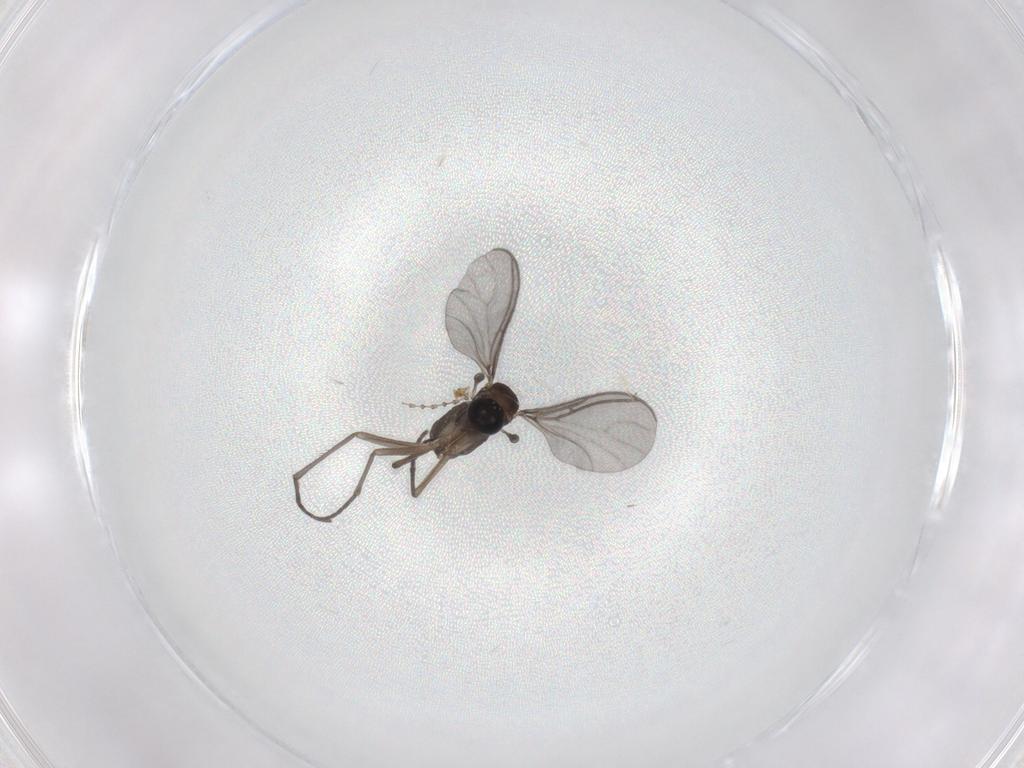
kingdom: Animalia
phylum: Arthropoda
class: Insecta
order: Diptera
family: Sciaridae
